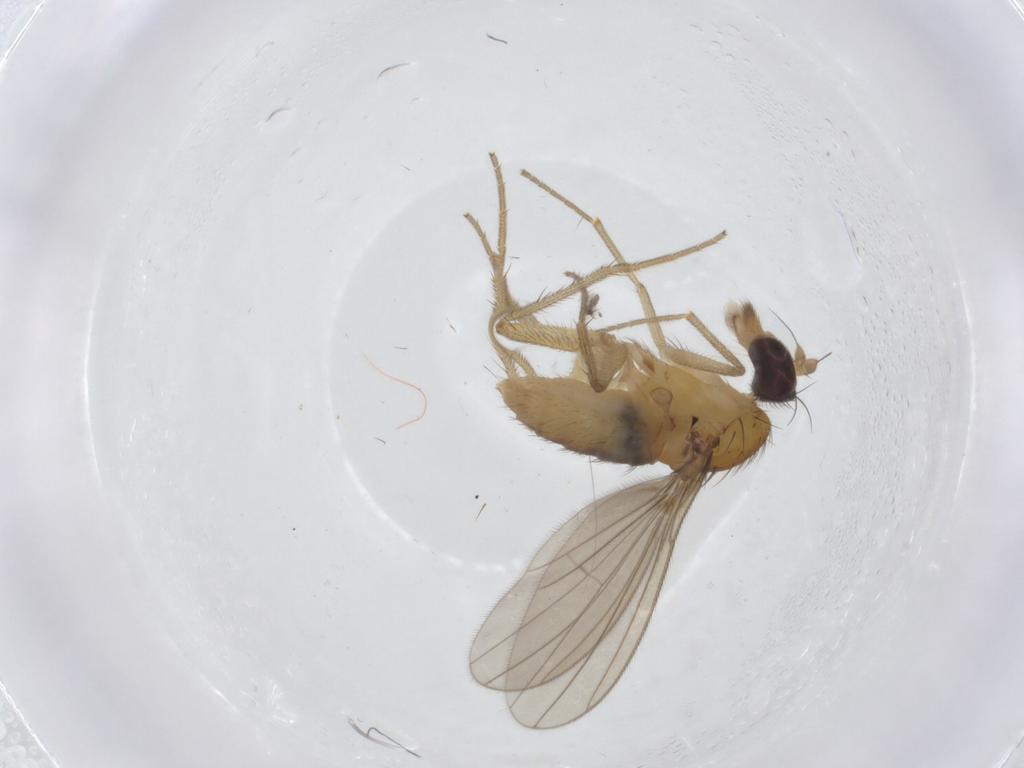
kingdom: Animalia
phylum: Arthropoda
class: Insecta
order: Diptera
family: Dolichopodidae
